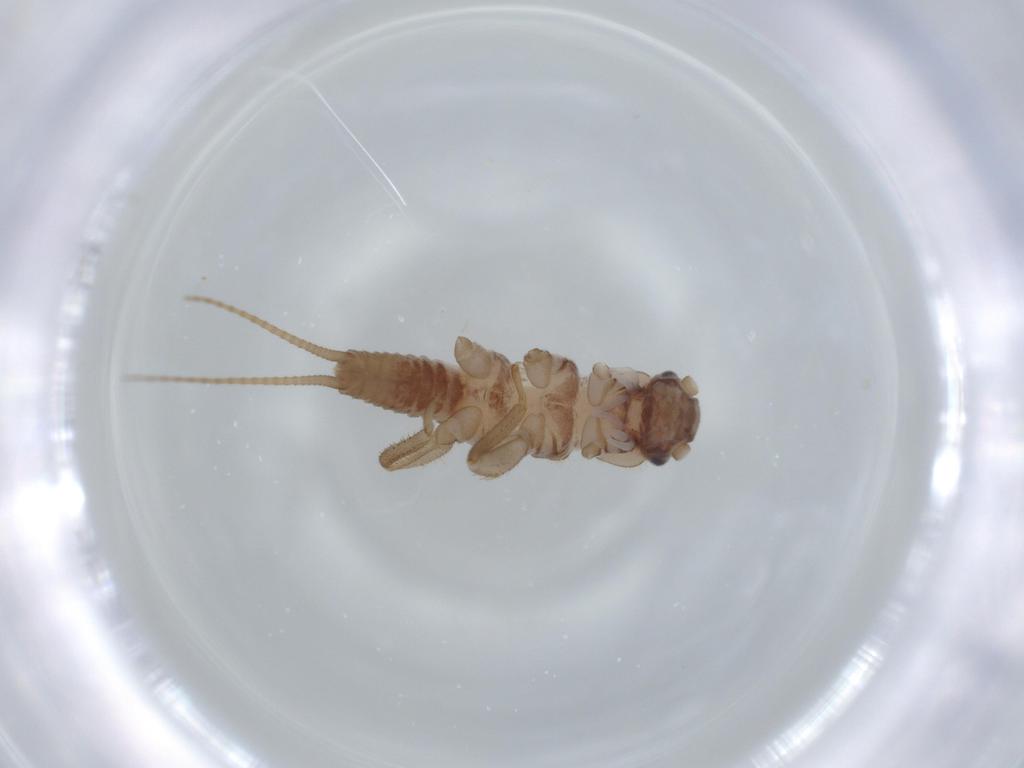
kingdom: Animalia
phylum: Arthropoda
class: Insecta
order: Plecoptera
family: Nemouridae
